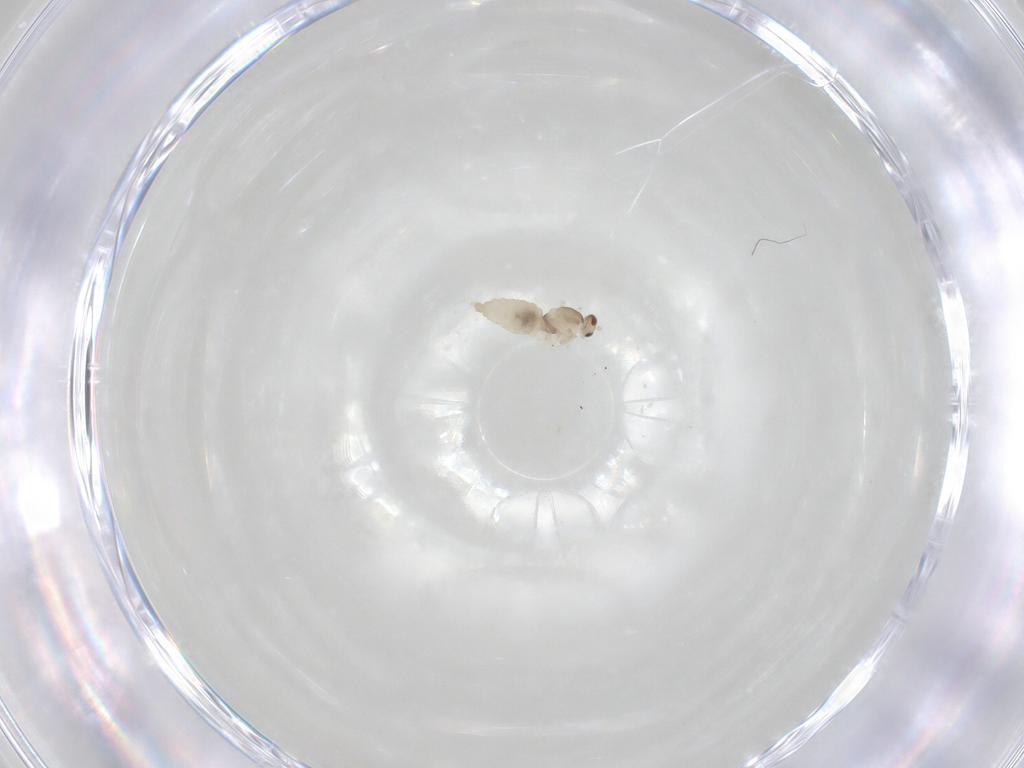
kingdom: Animalia
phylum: Arthropoda
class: Insecta
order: Diptera
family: Cecidomyiidae
